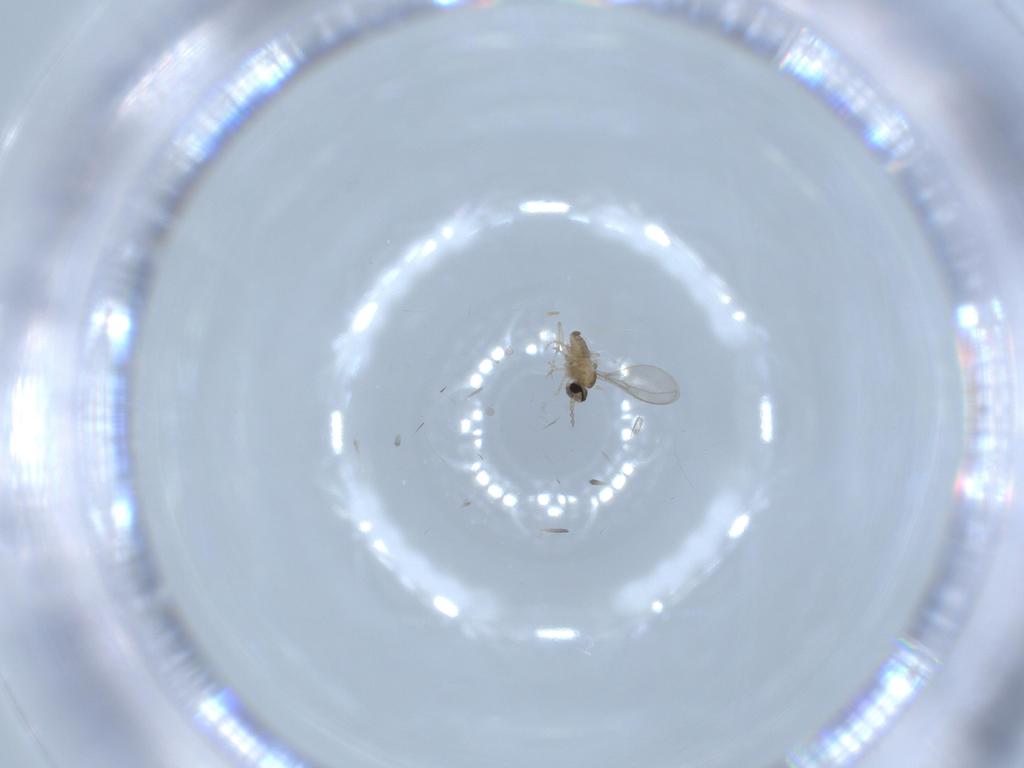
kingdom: Animalia
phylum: Arthropoda
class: Insecta
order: Diptera
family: Cecidomyiidae
